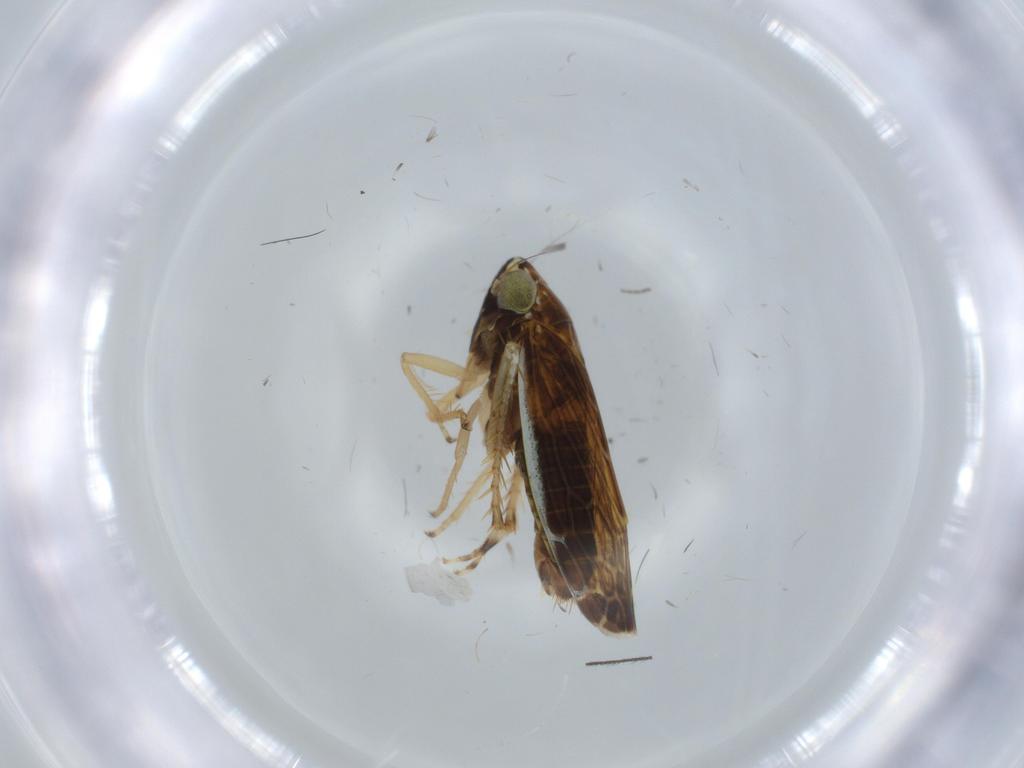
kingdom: Animalia
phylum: Arthropoda
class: Insecta
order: Hemiptera
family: Cicadellidae
